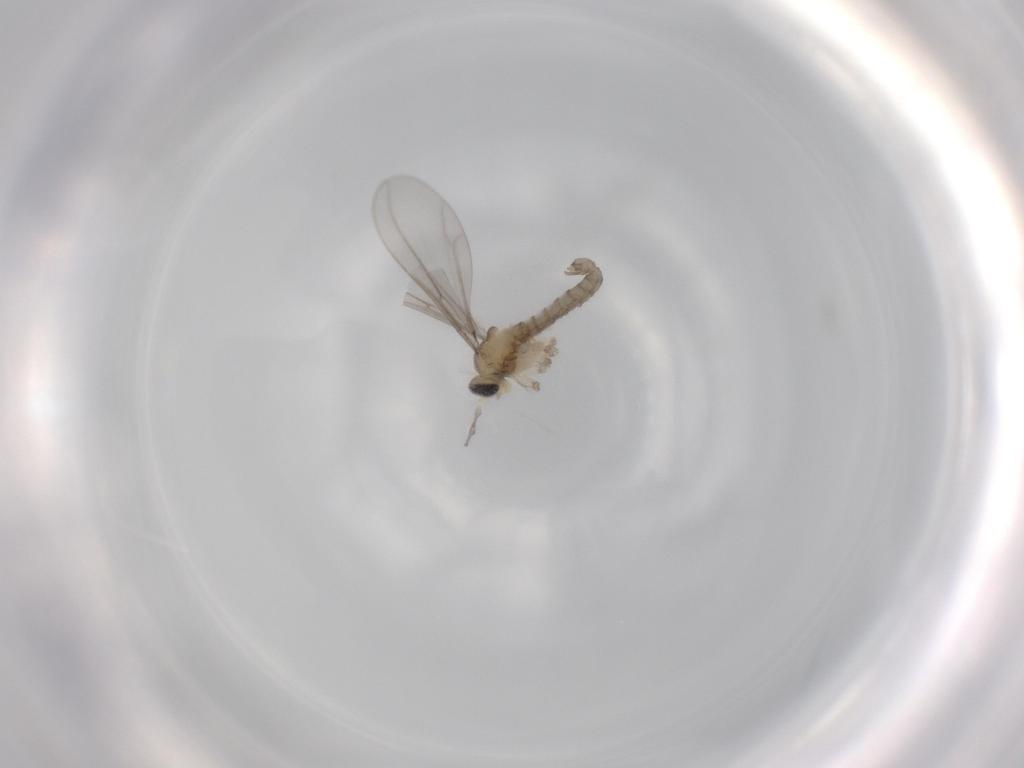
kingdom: Animalia
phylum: Arthropoda
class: Insecta
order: Diptera
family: Cecidomyiidae
